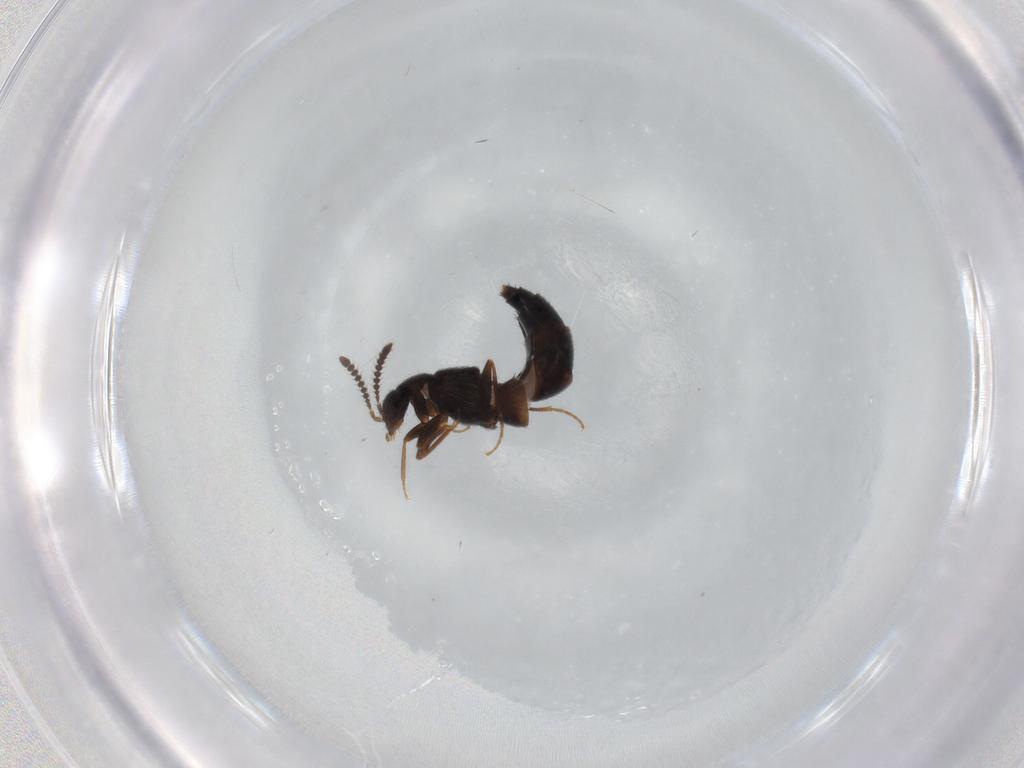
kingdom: Animalia
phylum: Arthropoda
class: Insecta
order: Coleoptera
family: Staphylinidae
